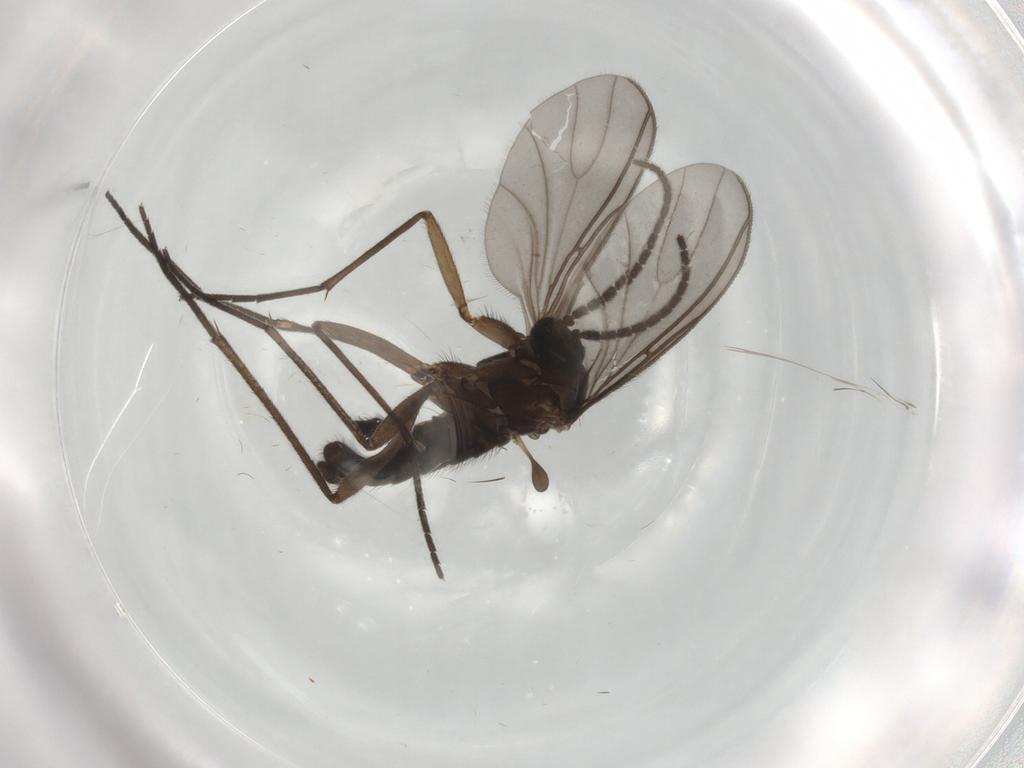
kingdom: Animalia
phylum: Arthropoda
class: Insecta
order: Diptera
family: Sciaridae
